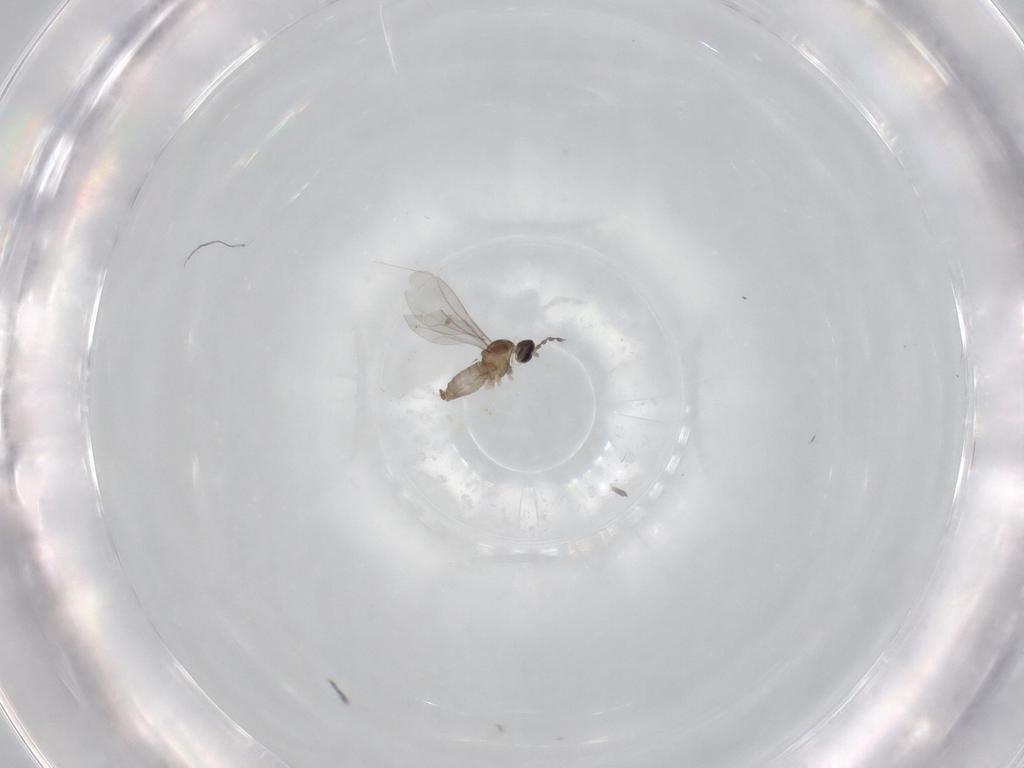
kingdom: Animalia
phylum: Arthropoda
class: Insecta
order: Diptera
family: Cecidomyiidae
